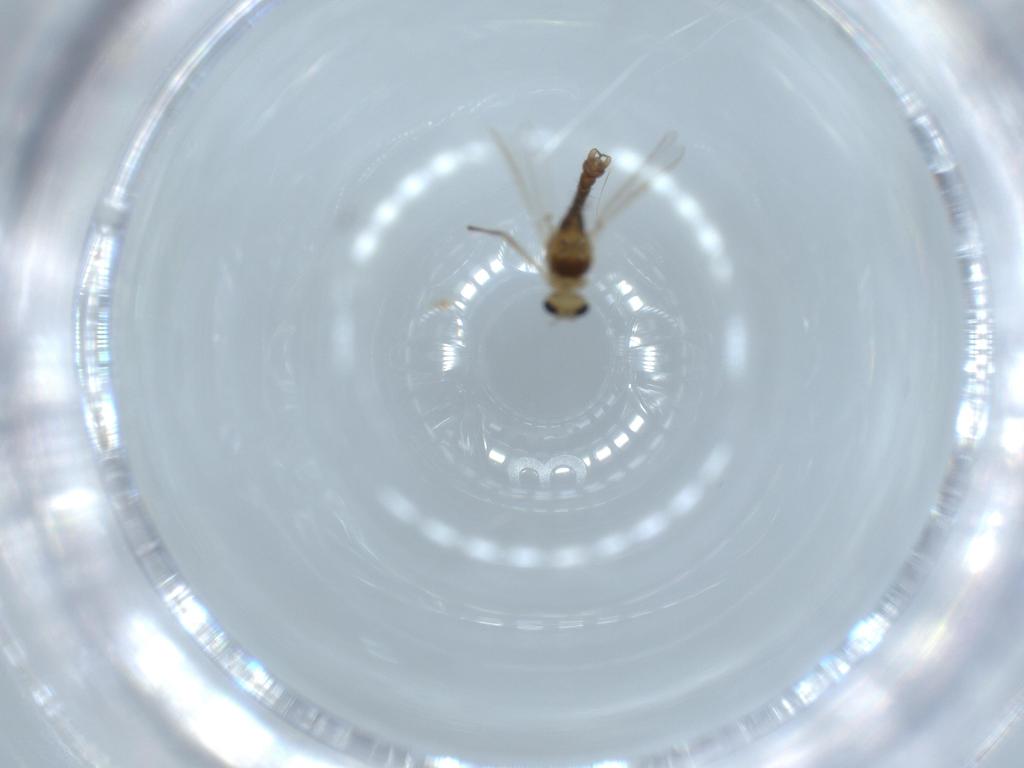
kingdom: Animalia
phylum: Arthropoda
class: Insecta
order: Diptera
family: Chironomidae
